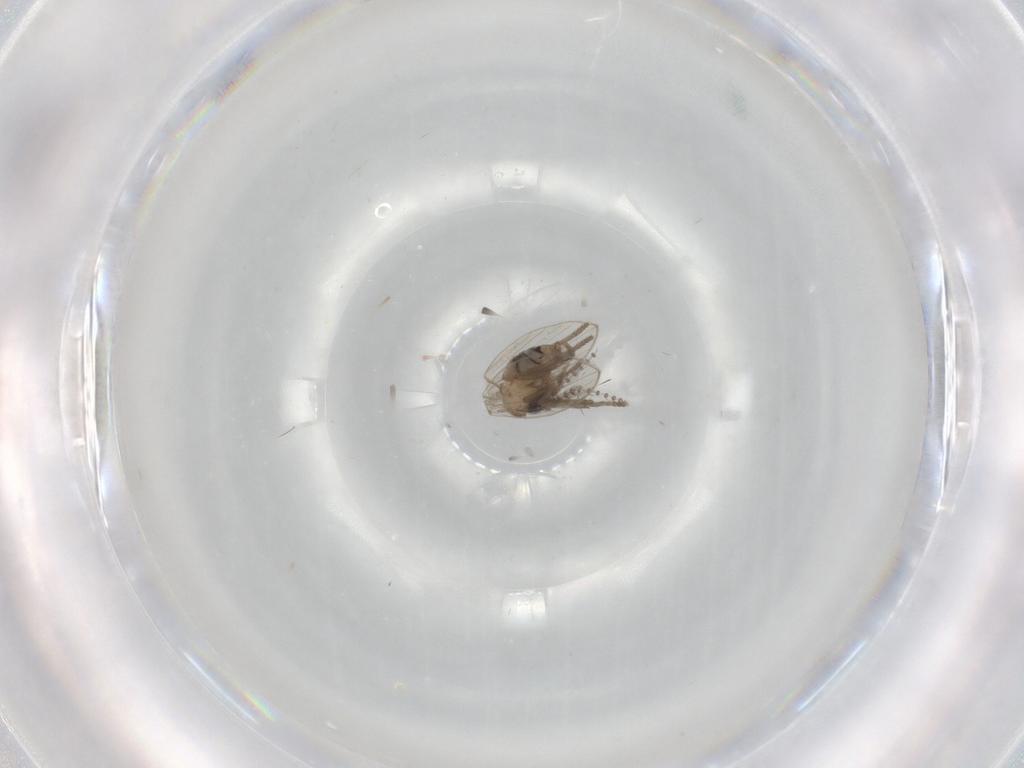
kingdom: Animalia
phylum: Arthropoda
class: Insecta
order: Diptera
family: Psychodidae
